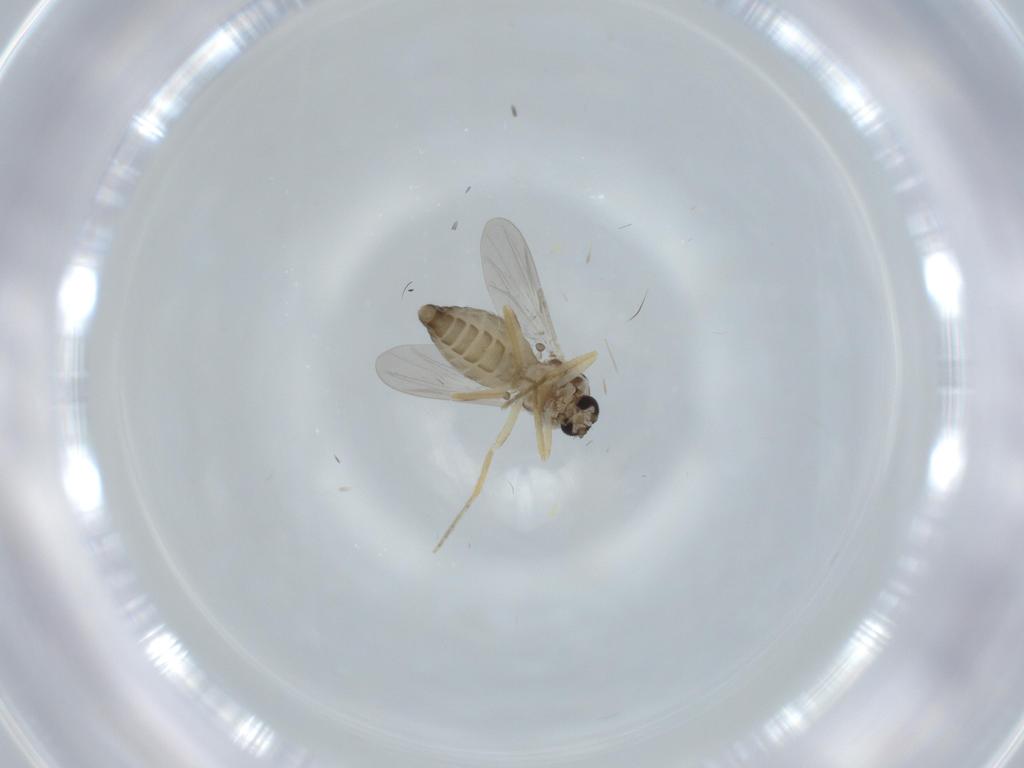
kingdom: Animalia
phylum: Arthropoda
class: Insecta
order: Diptera
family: Ceratopogonidae
